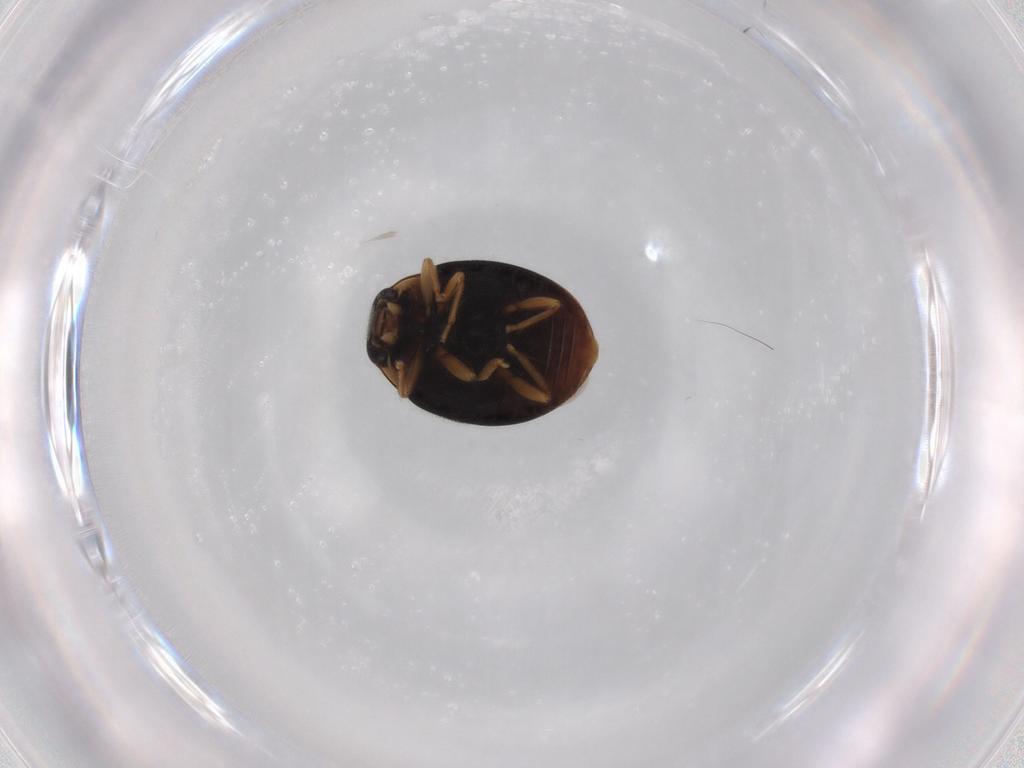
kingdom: Animalia
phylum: Arthropoda
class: Insecta
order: Coleoptera
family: Coccinellidae
